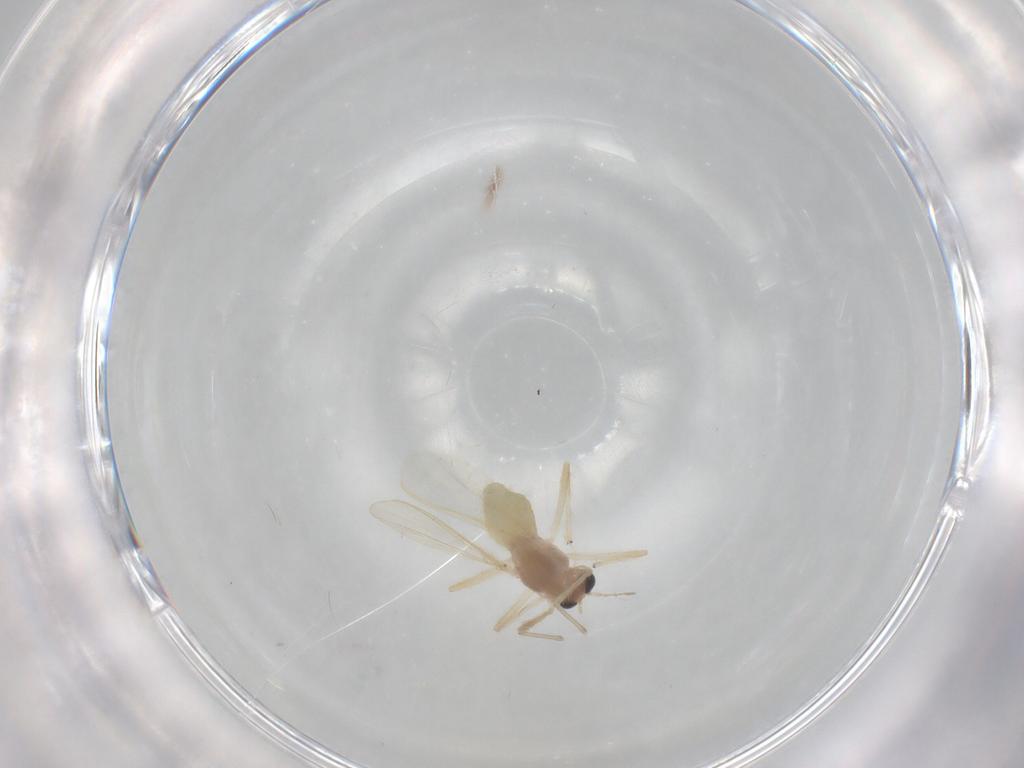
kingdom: Animalia
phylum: Arthropoda
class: Insecta
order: Diptera
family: Chironomidae
